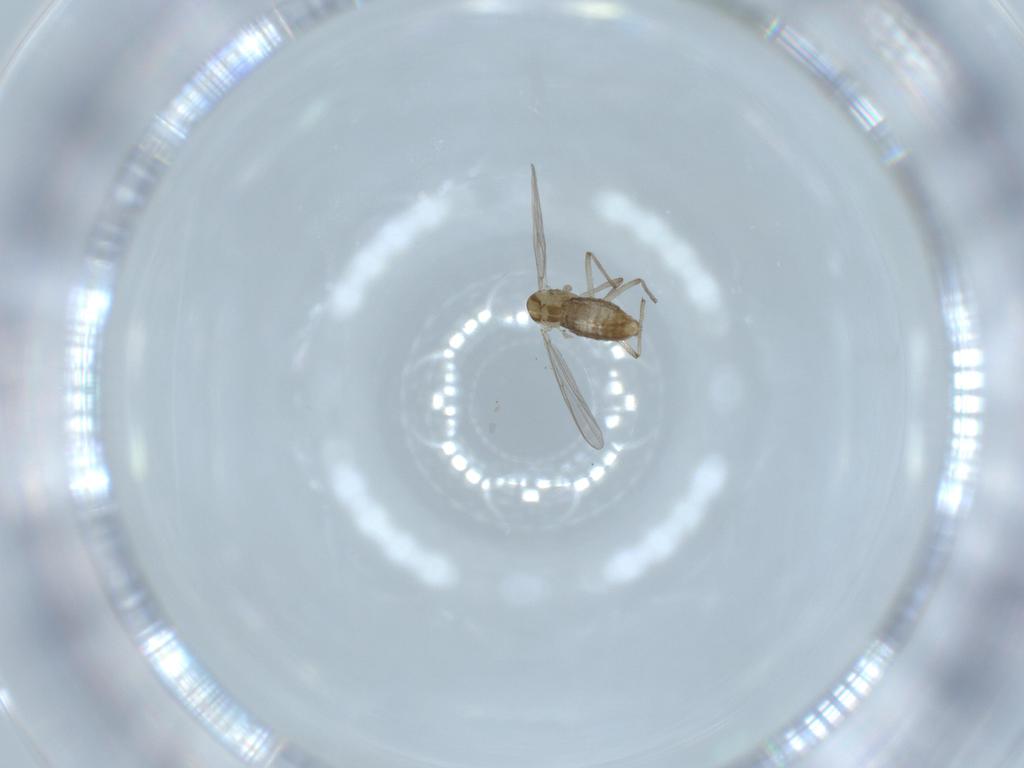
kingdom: Animalia
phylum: Arthropoda
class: Insecta
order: Diptera
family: Chironomidae
